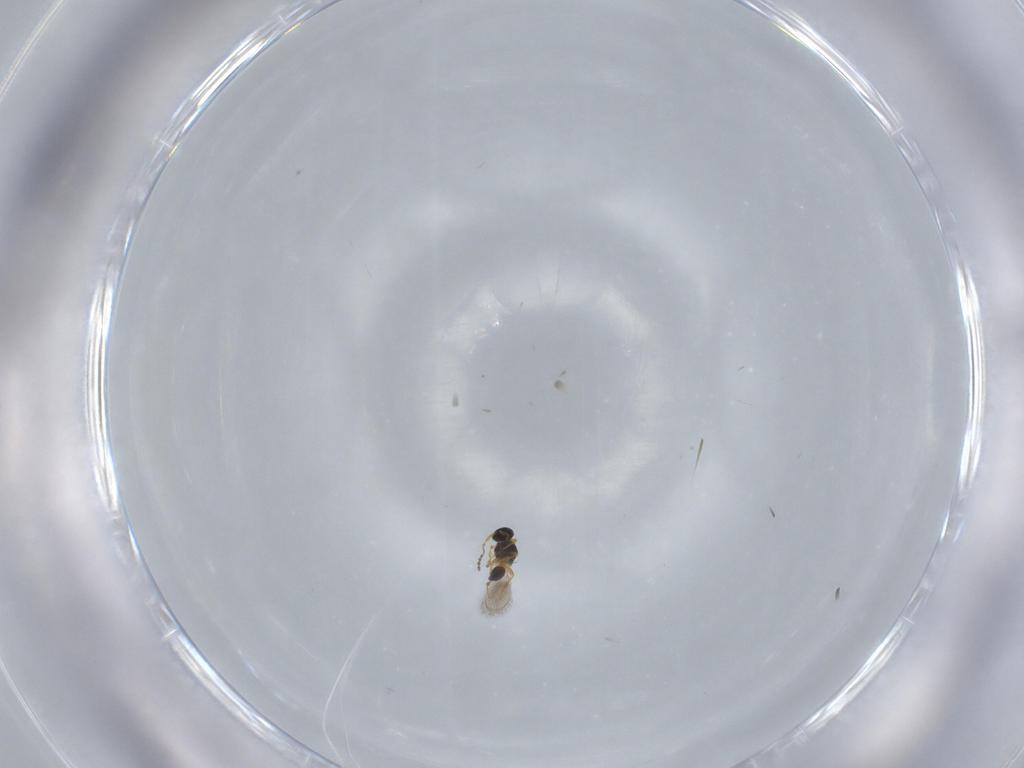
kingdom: Animalia
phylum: Arthropoda
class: Insecta
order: Hymenoptera
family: Platygastridae
